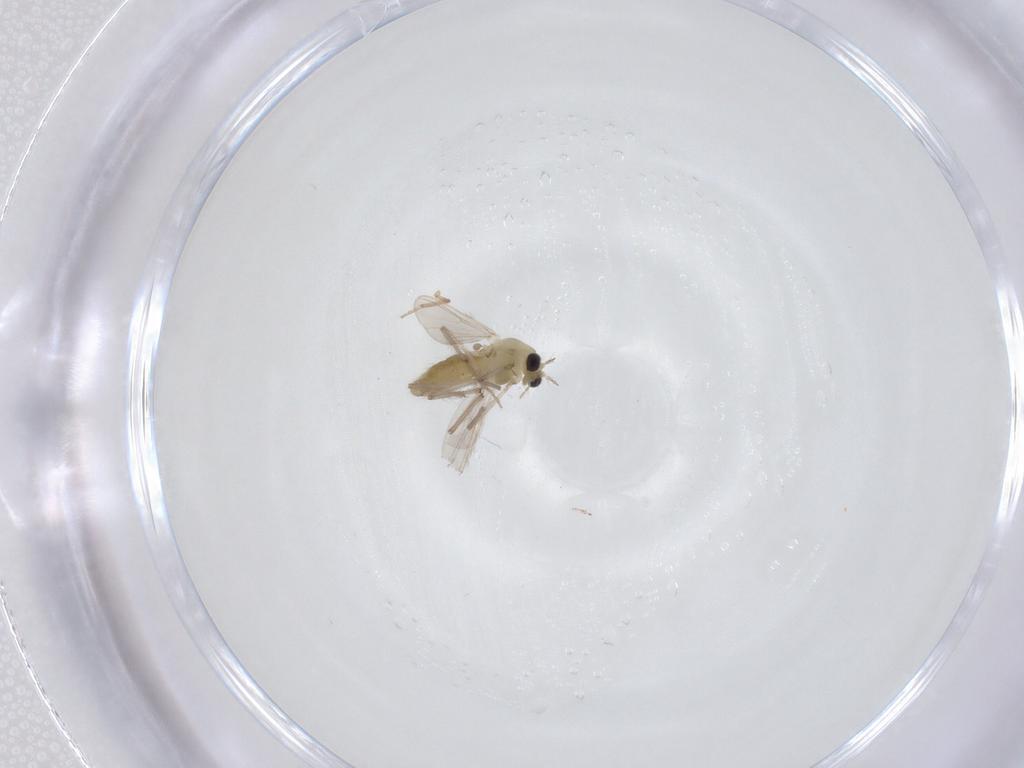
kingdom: Animalia
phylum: Arthropoda
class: Insecta
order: Diptera
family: Chironomidae
